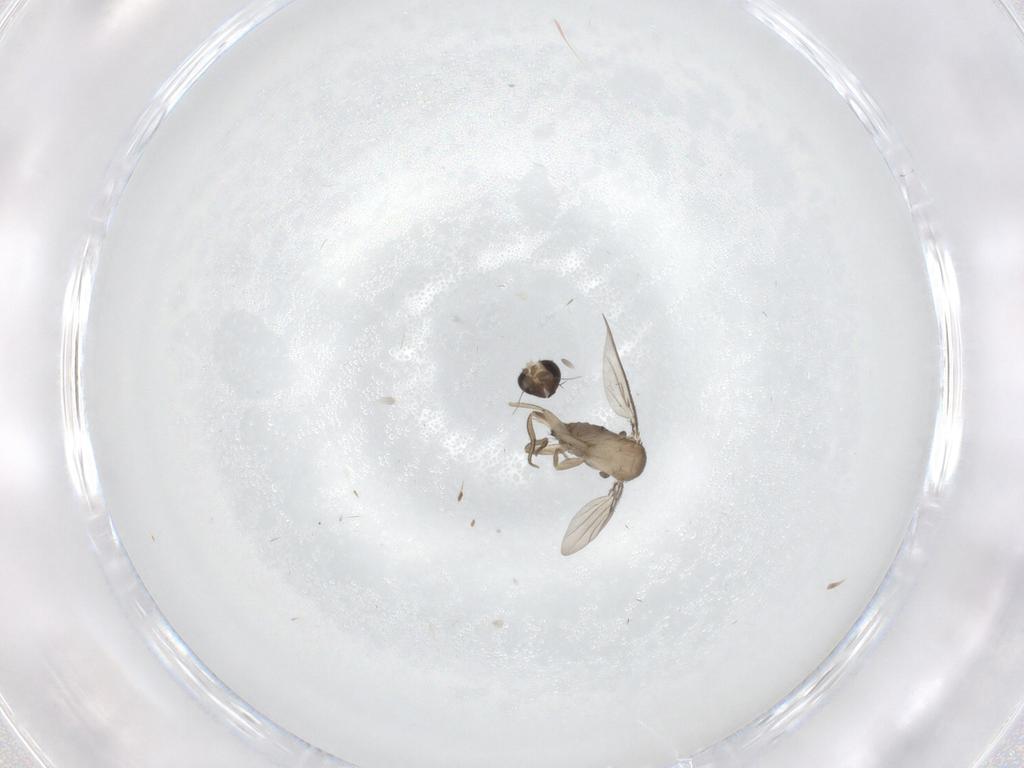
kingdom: Animalia
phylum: Arthropoda
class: Insecta
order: Diptera
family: Phoridae
